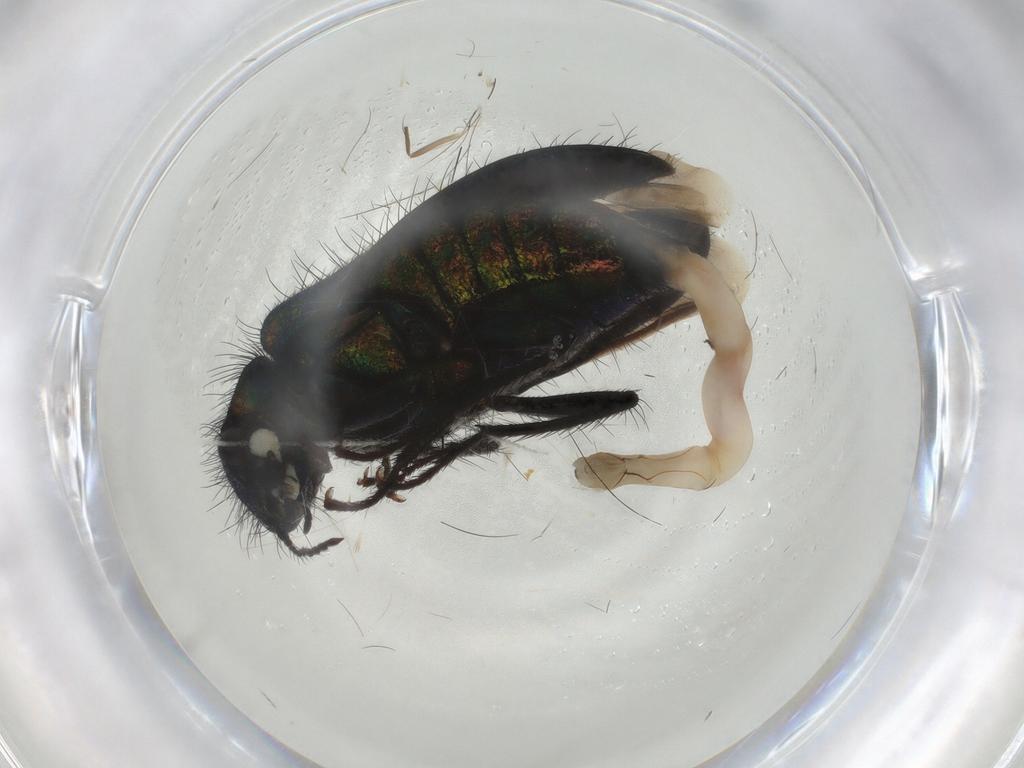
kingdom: Animalia
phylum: Arthropoda
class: Insecta
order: Coleoptera
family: Melyridae
